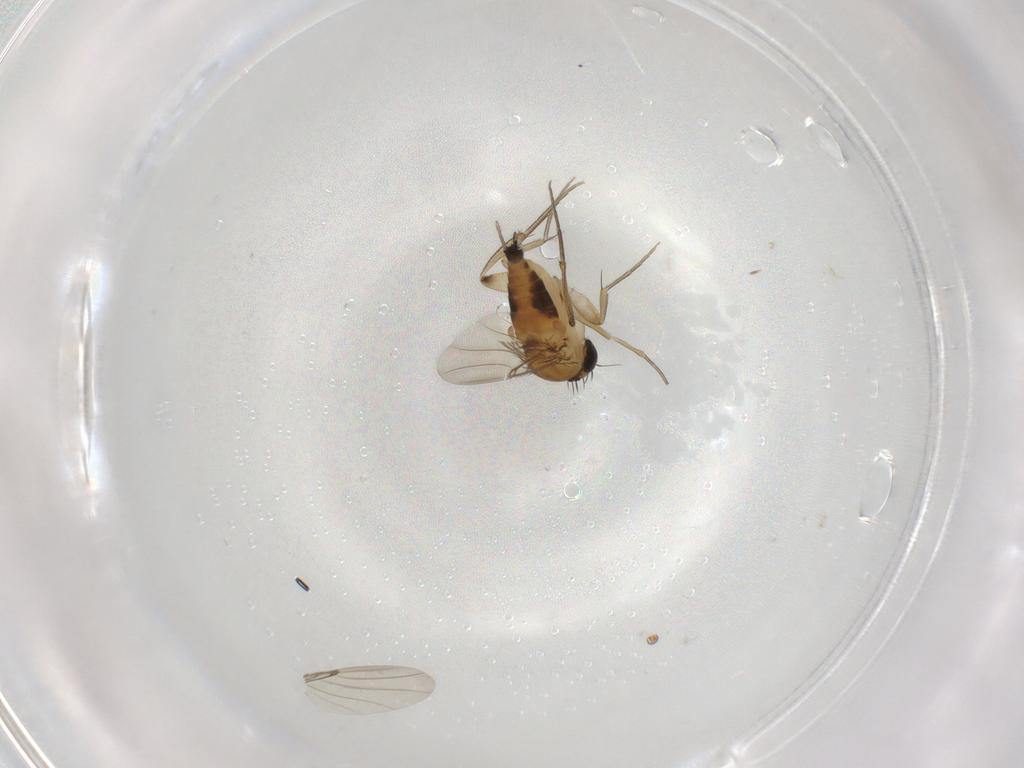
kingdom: Animalia
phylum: Arthropoda
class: Insecta
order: Diptera
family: Phoridae
